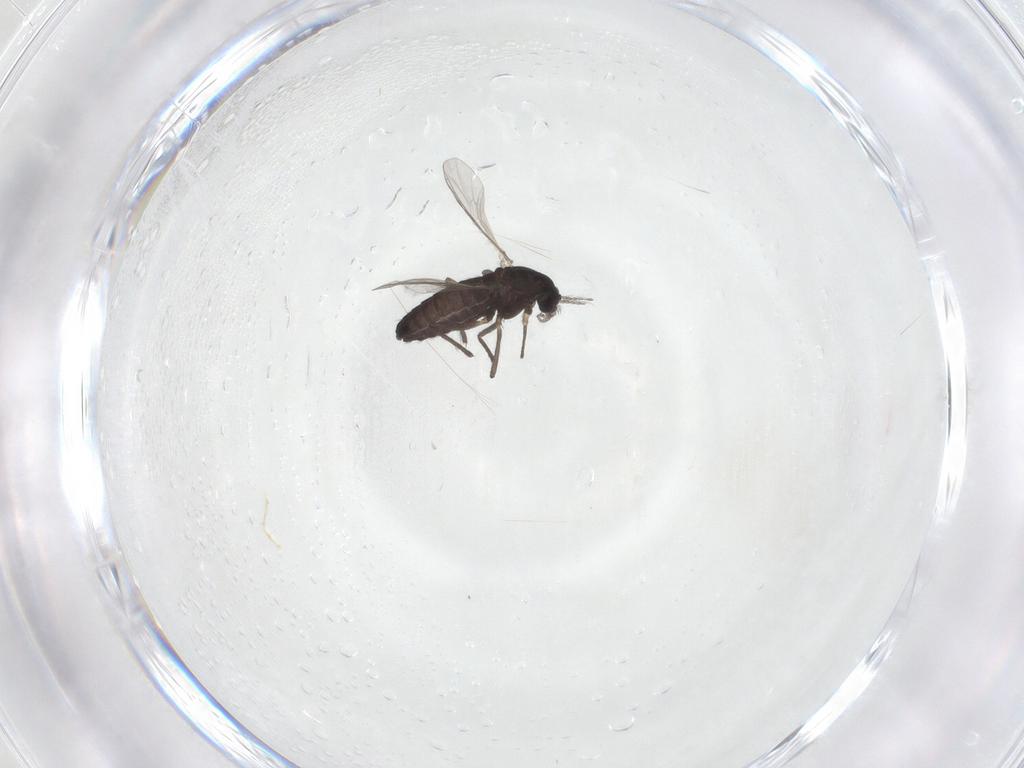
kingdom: Animalia
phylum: Arthropoda
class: Insecta
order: Diptera
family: Chironomidae
